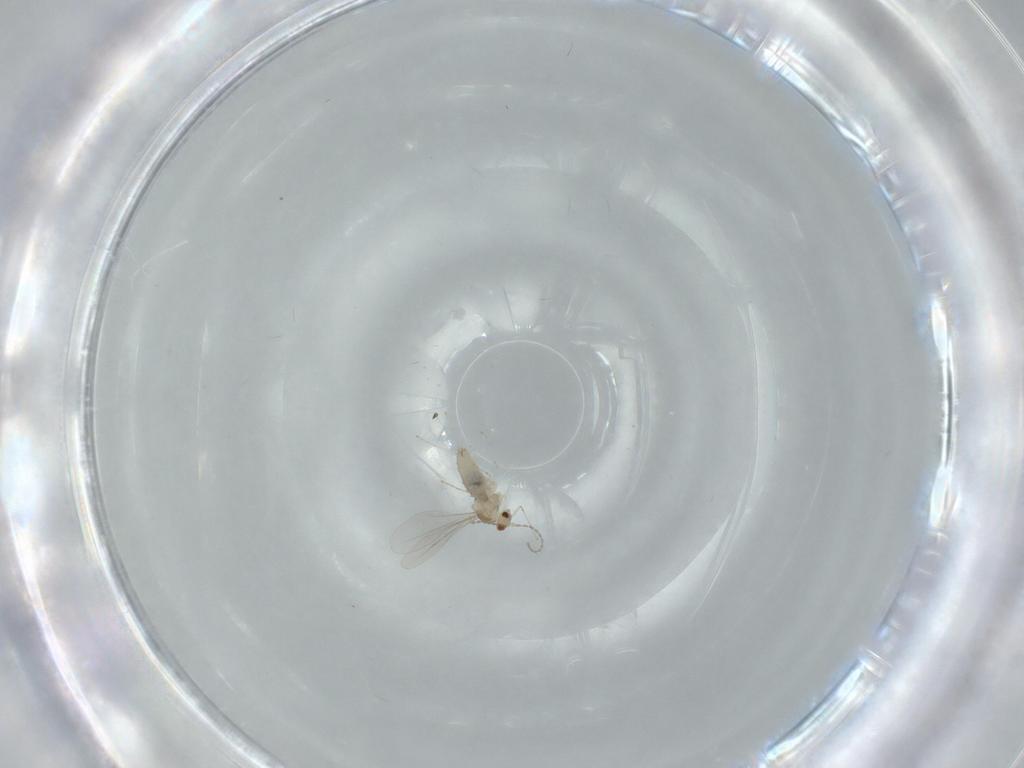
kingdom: Animalia
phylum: Arthropoda
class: Insecta
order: Diptera
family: Cecidomyiidae
